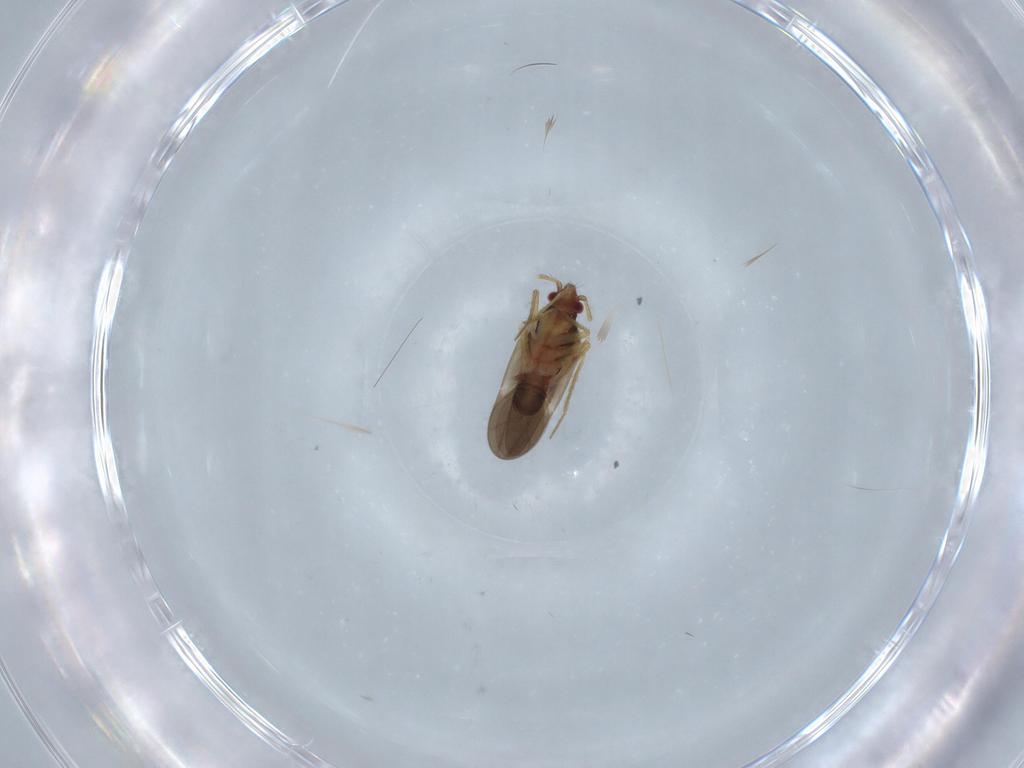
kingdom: Animalia
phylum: Arthropoda
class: Insecta
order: Hemiptera
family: Ceratocombidae
